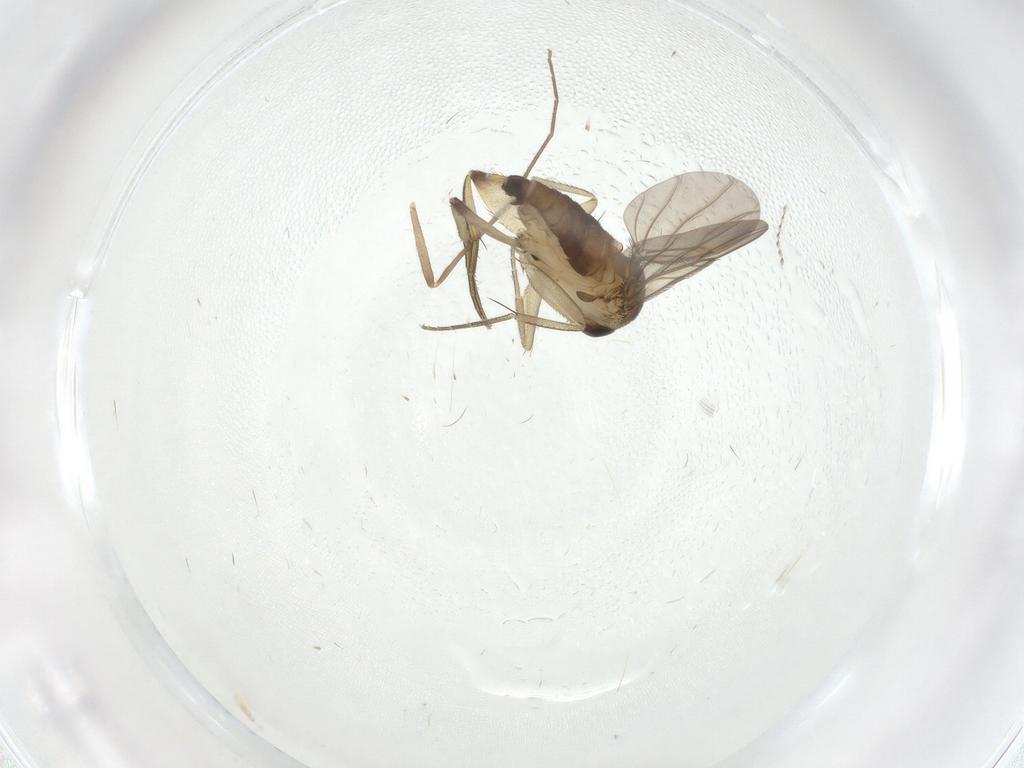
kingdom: Animalia
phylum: Arthropoda
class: Insecta
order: Diptera
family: Phoridae
